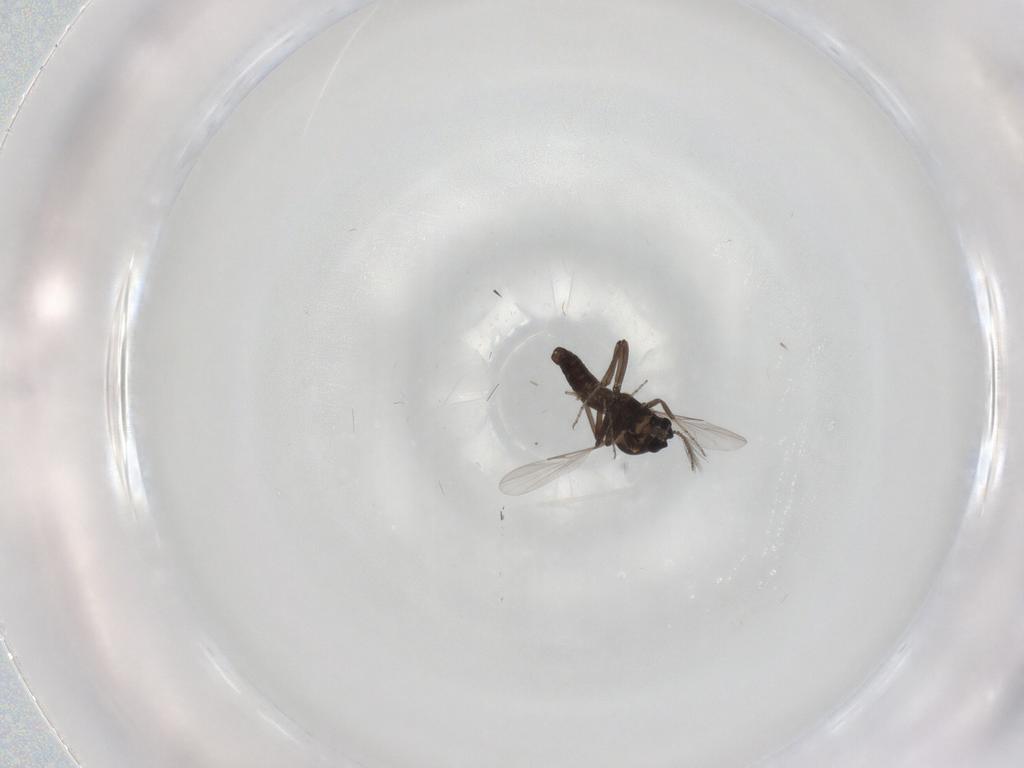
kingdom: Animalia
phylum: Arthropoda
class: Insecta
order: Diptera
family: Ceratopogonidae
